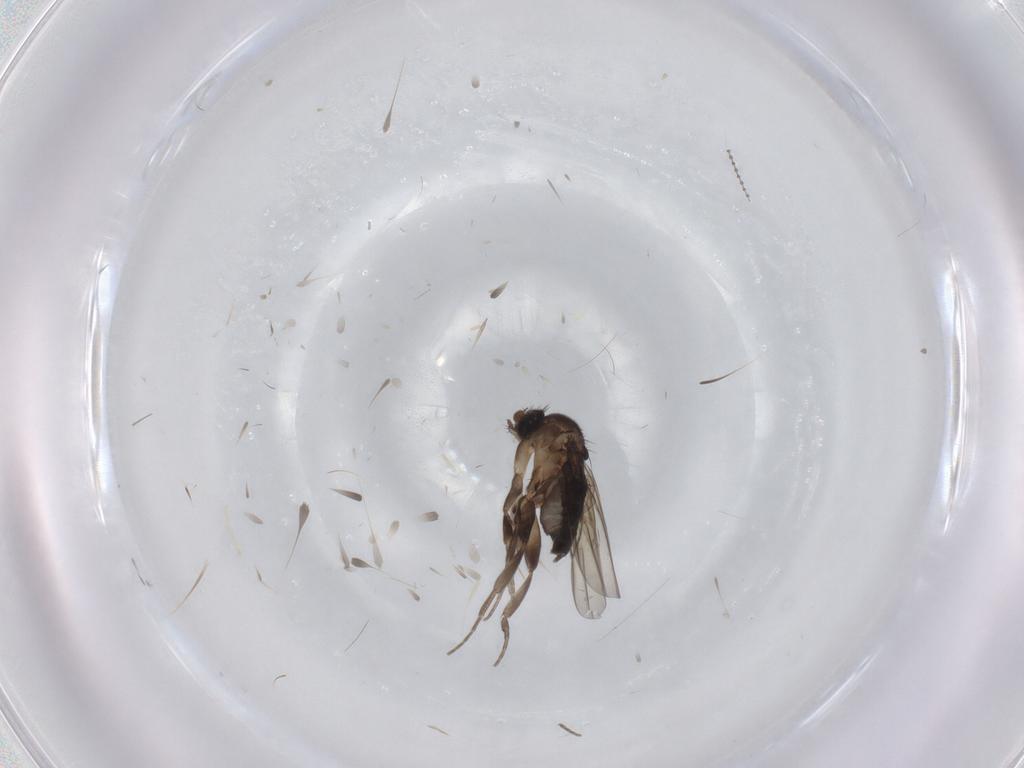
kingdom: Animalia
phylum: Arthropoda
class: Insecta
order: Diptera
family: Phoridae
